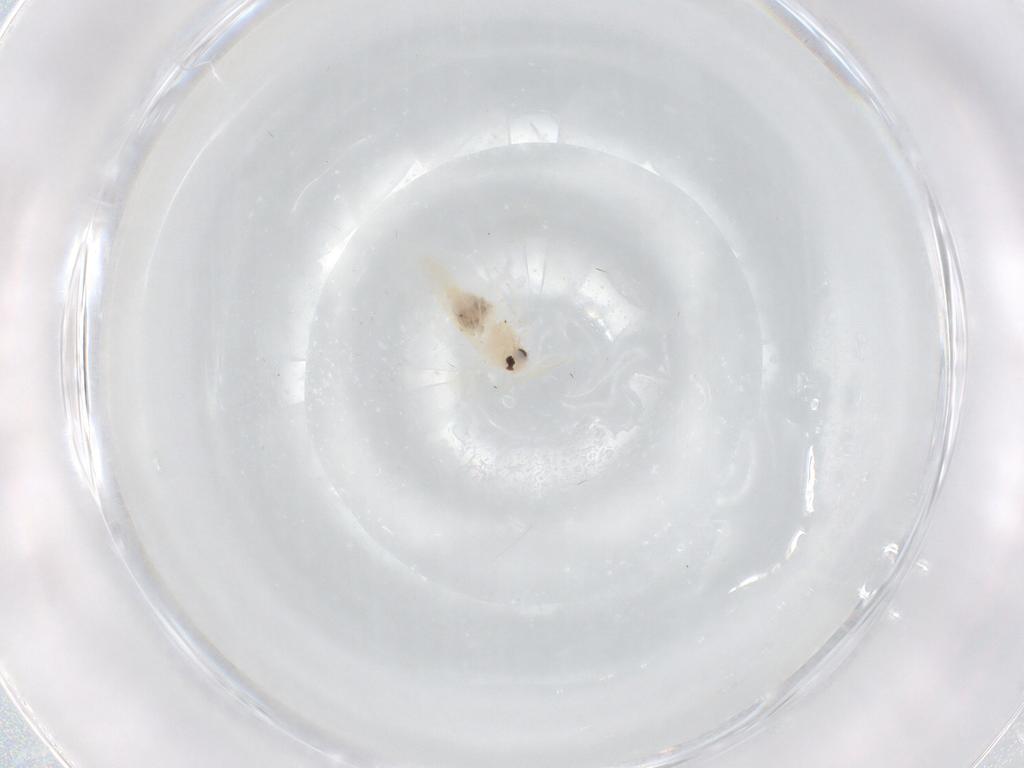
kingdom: Animalia
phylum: Arthropoda
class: Insecta
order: Hemiptera
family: Aleyrodidae
